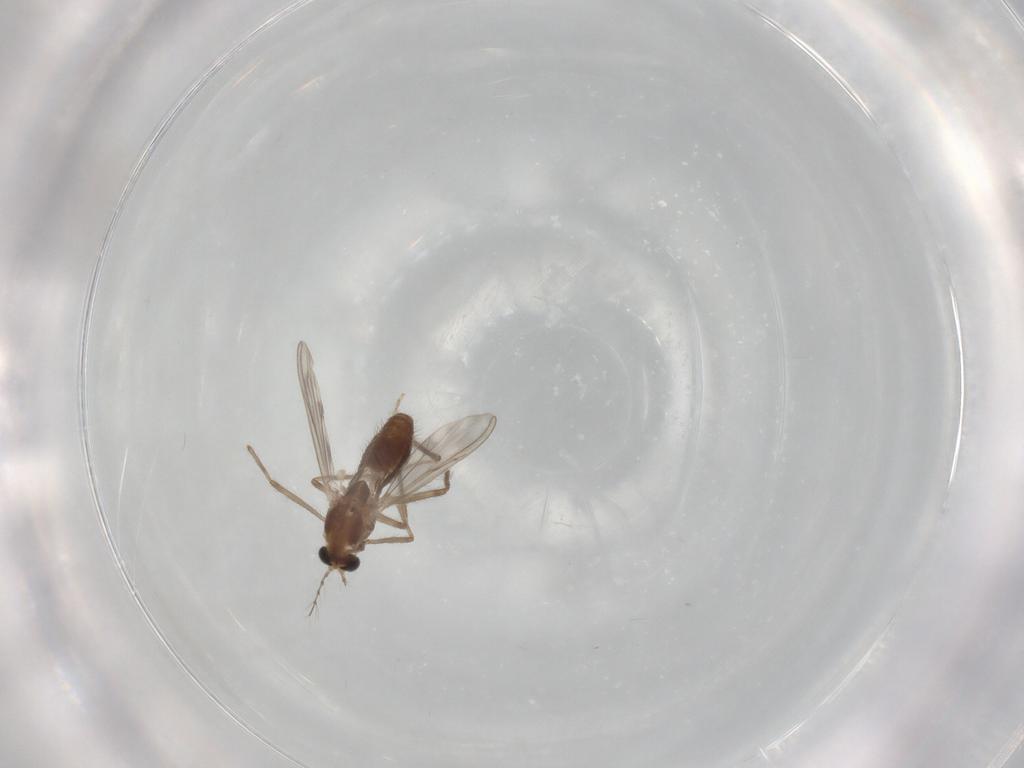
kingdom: Animalia
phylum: Arthropoda
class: Insecta
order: Diptera
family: Chironomidae
